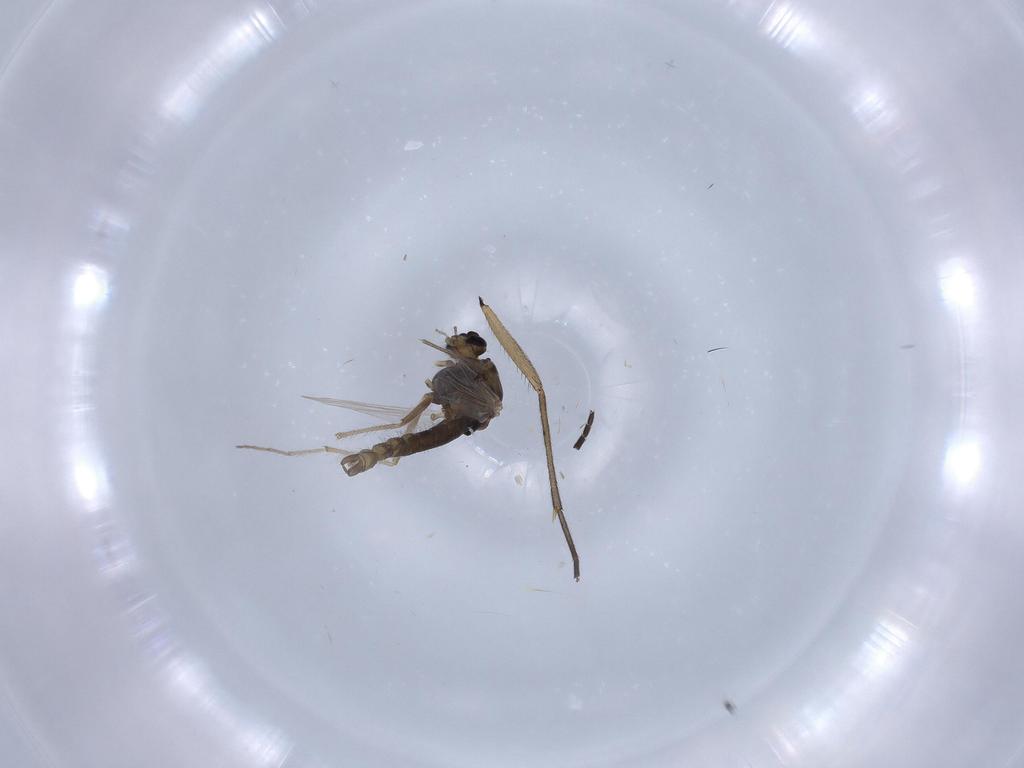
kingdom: Animalia
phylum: Arthropoda
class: Insecta
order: Diptera
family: Chironomidae
